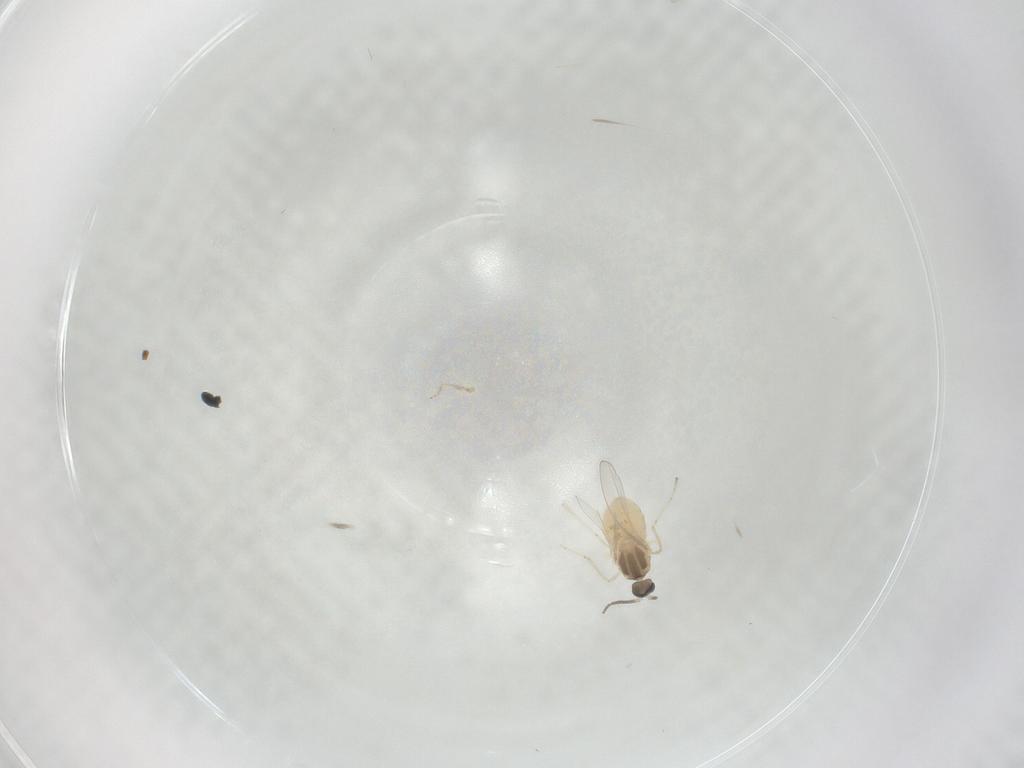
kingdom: Animalia
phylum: Arthropoda
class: Insecta
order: Diptera
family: Cecidomyiidae
